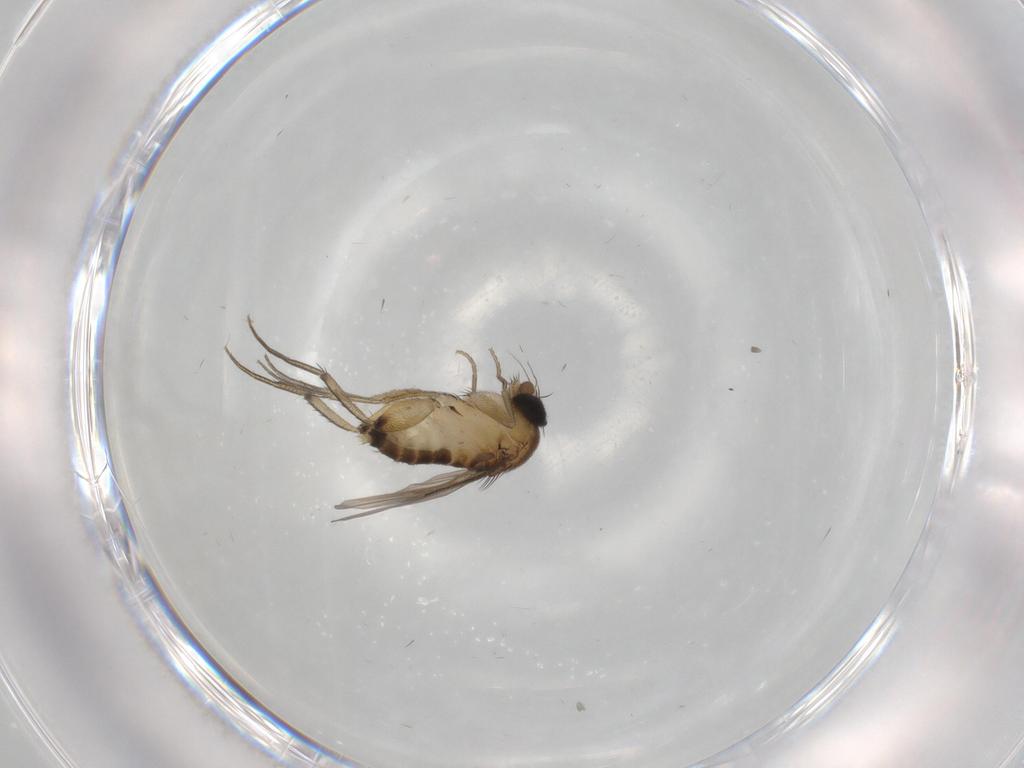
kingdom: Animalia
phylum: Arthropoda
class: Insecta
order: Diptera
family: Phoridae
